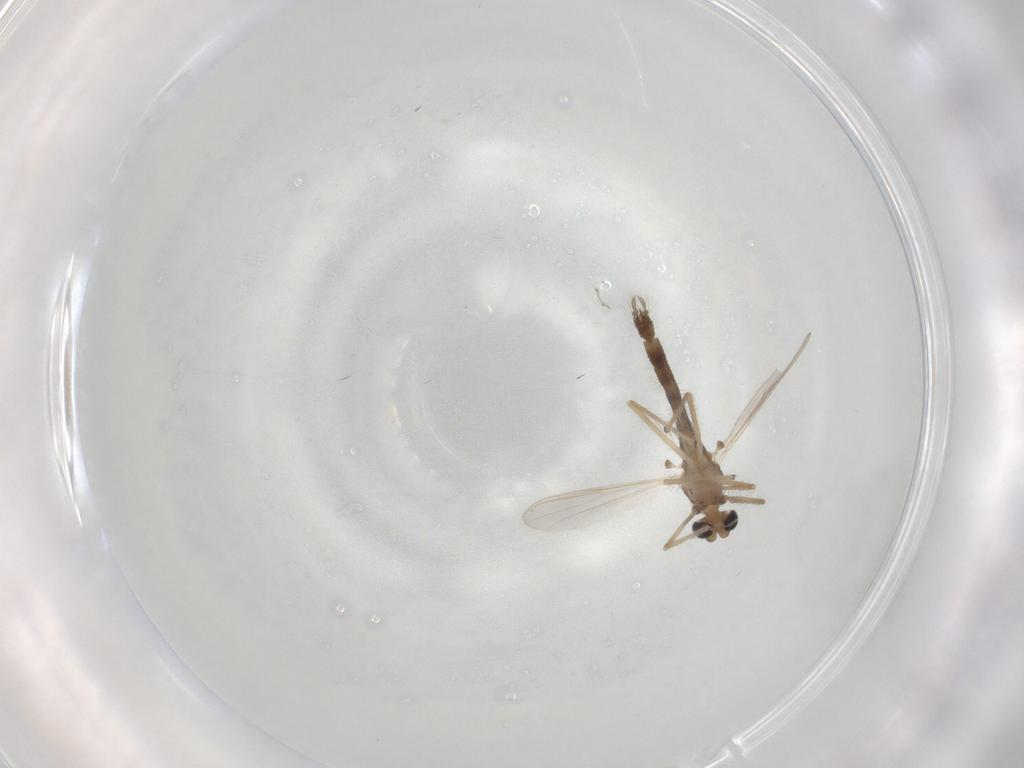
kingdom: Animalia
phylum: Arthropoda
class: Insecta
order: Diptera
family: Chironomidae
